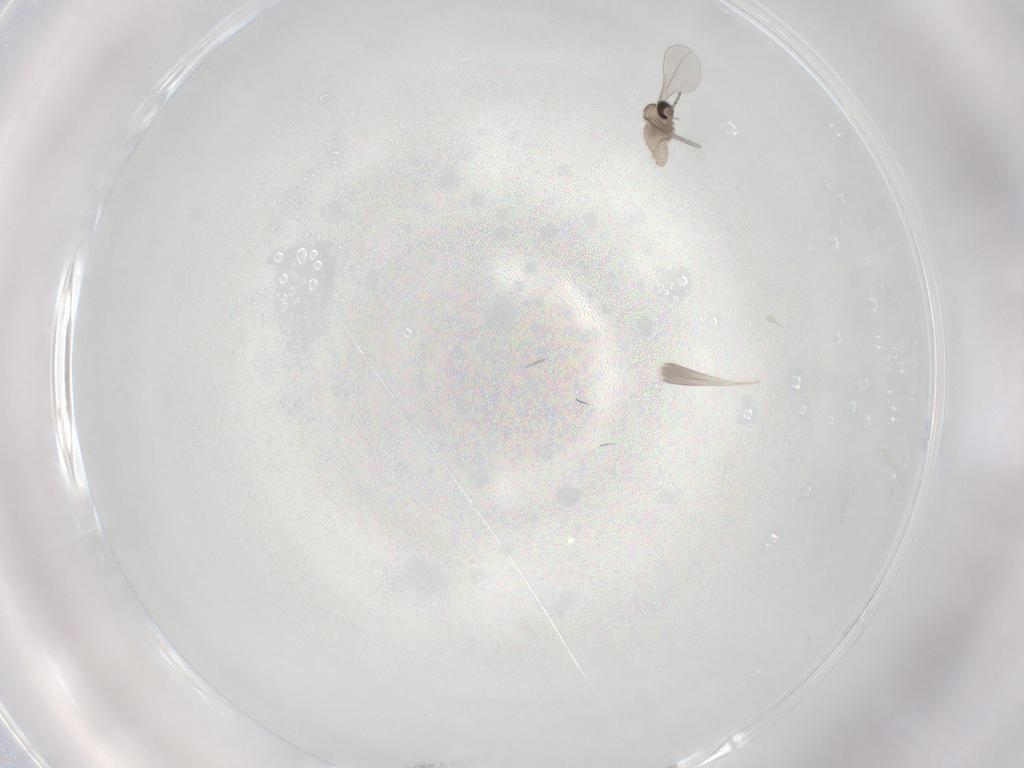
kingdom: Animalia
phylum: Arthropoda
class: Insecta
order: Diptera
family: Cecidomyiidae
